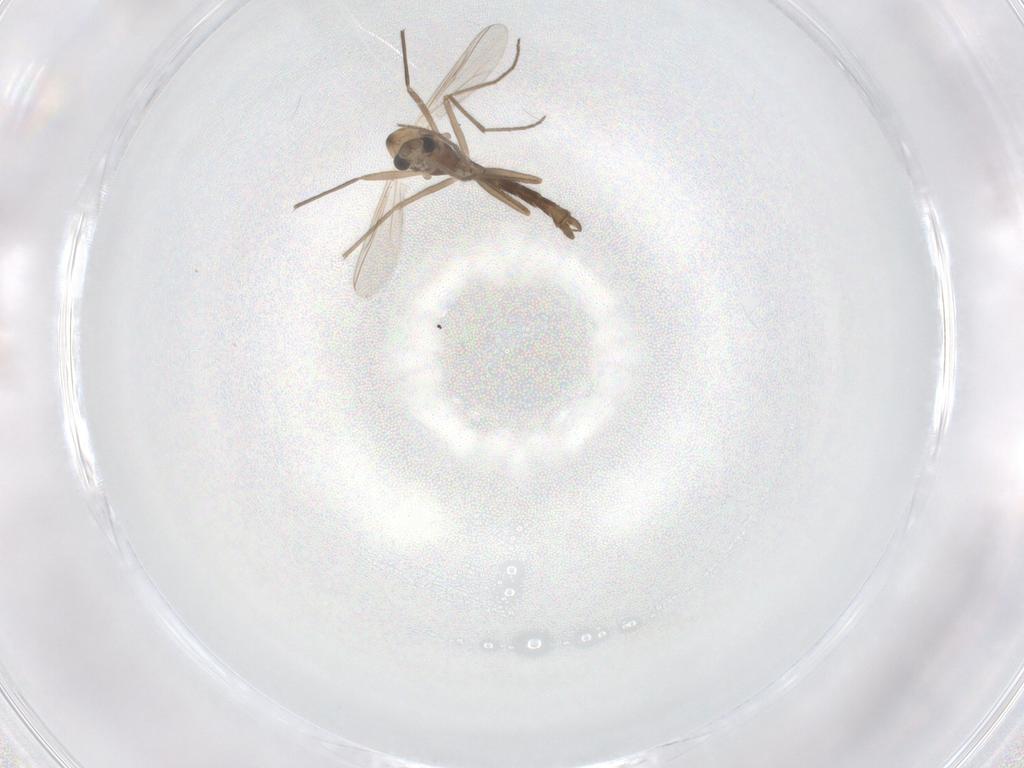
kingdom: Animalia
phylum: Arthropoda
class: Insecta
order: Diptera
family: Chironomidae
